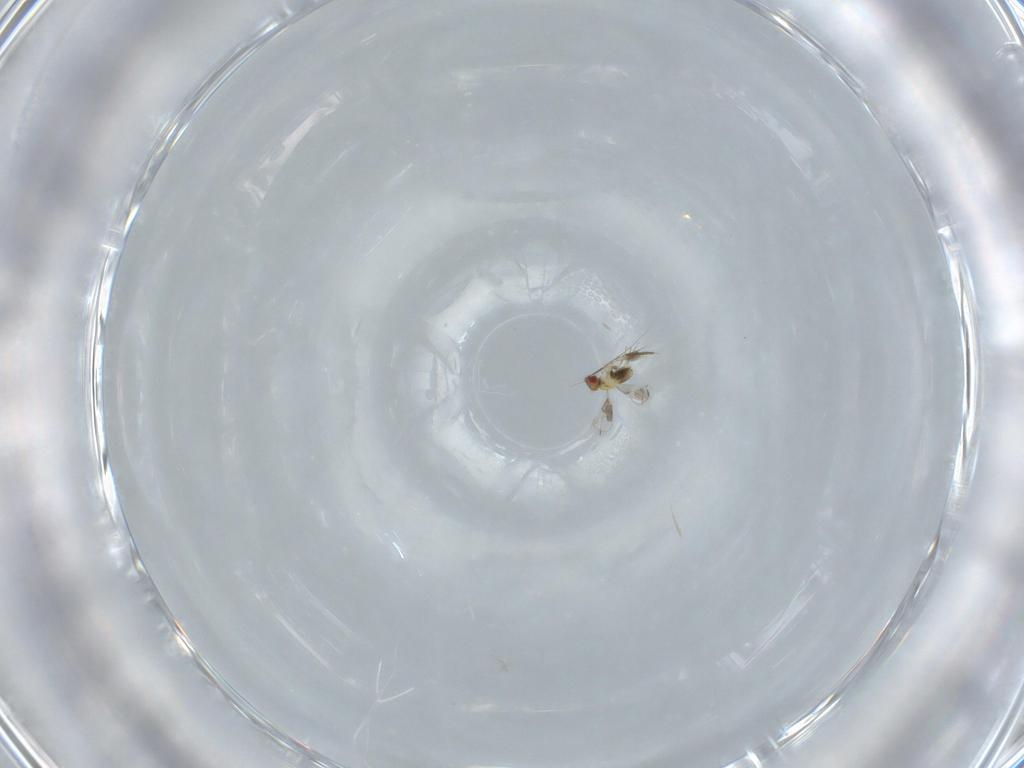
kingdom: Animalia
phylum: Arthropoda
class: Insecta
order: Hymenoptera
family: Trichogrammatidae
